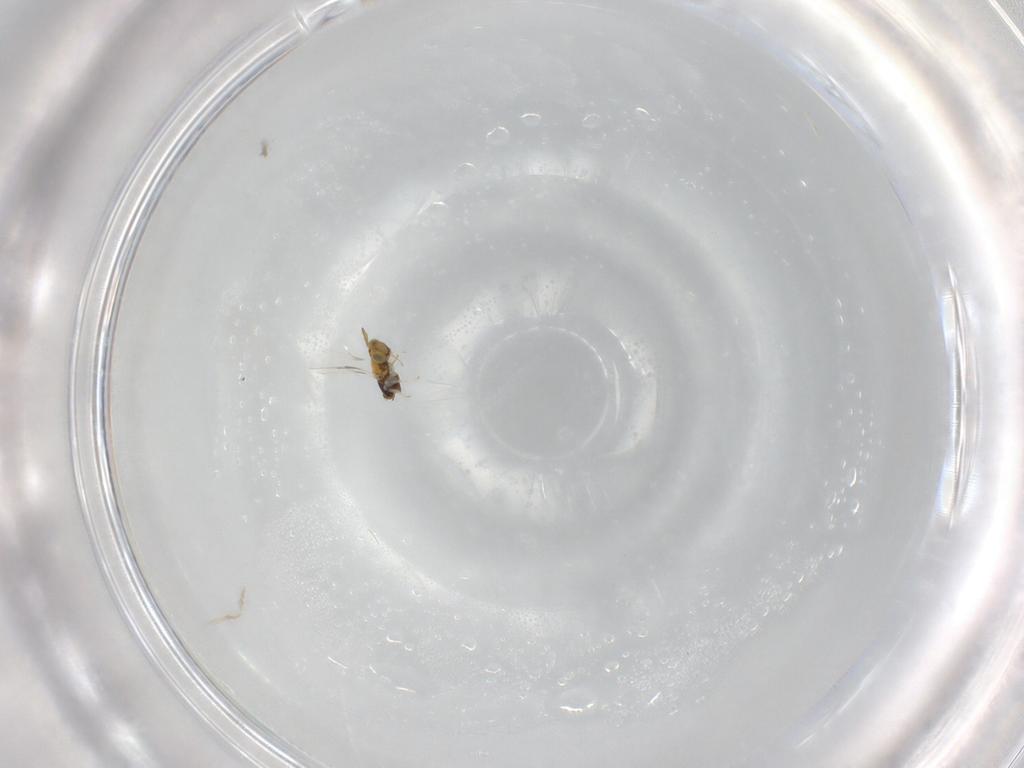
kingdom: Animalia
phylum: Arthropoda
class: Insecta
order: Hymenoptera
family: Aphelinidae
